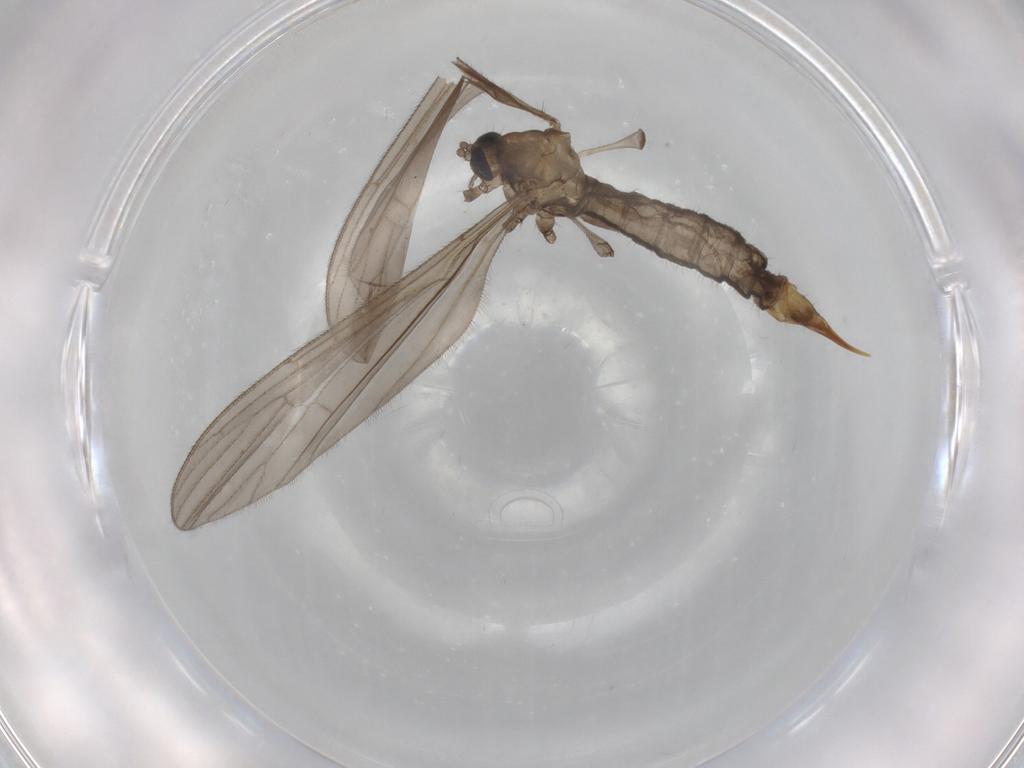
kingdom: Animalia
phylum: Arthropoda
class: Insecta
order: Diptera
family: Limoniidae
